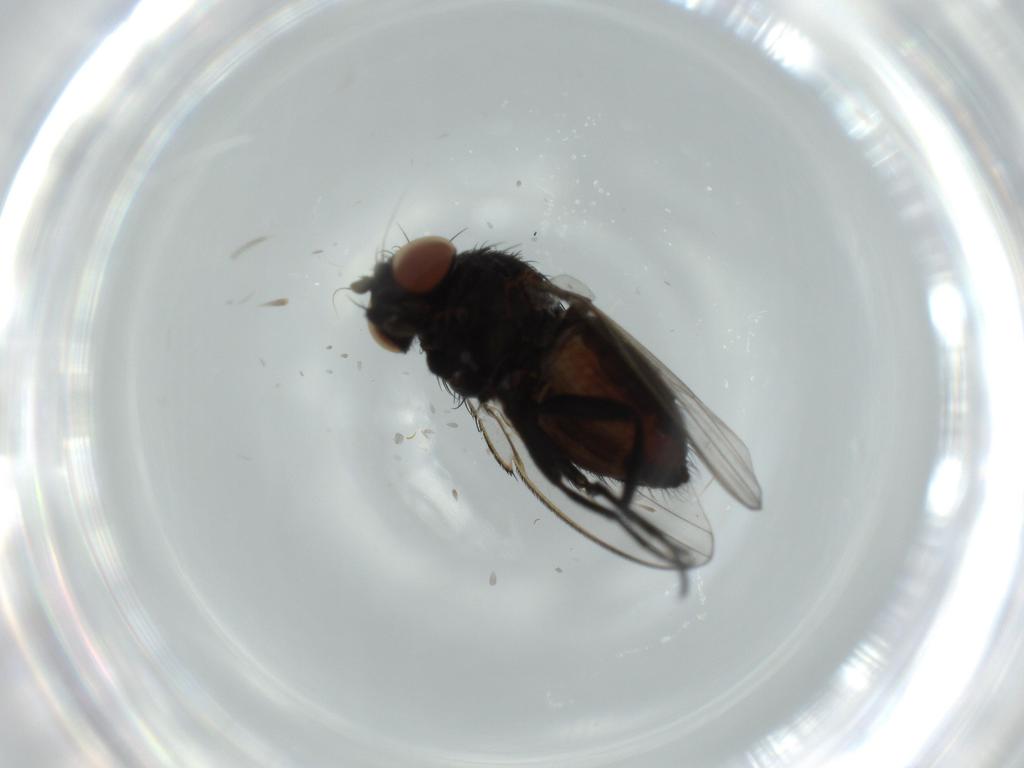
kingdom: Animalia
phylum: Arthropoda
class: Insecta
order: Diptera
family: Milichiidae
